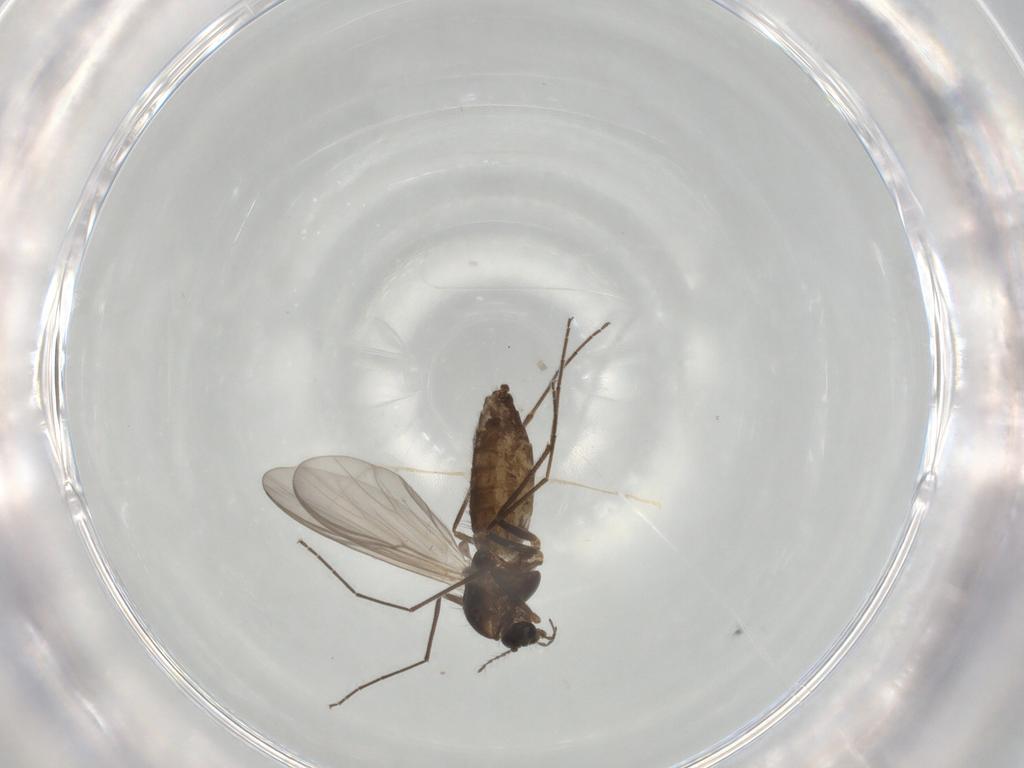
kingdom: Animalia
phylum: Arthropoda
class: Insecta
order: Diptera
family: Chironomidae
